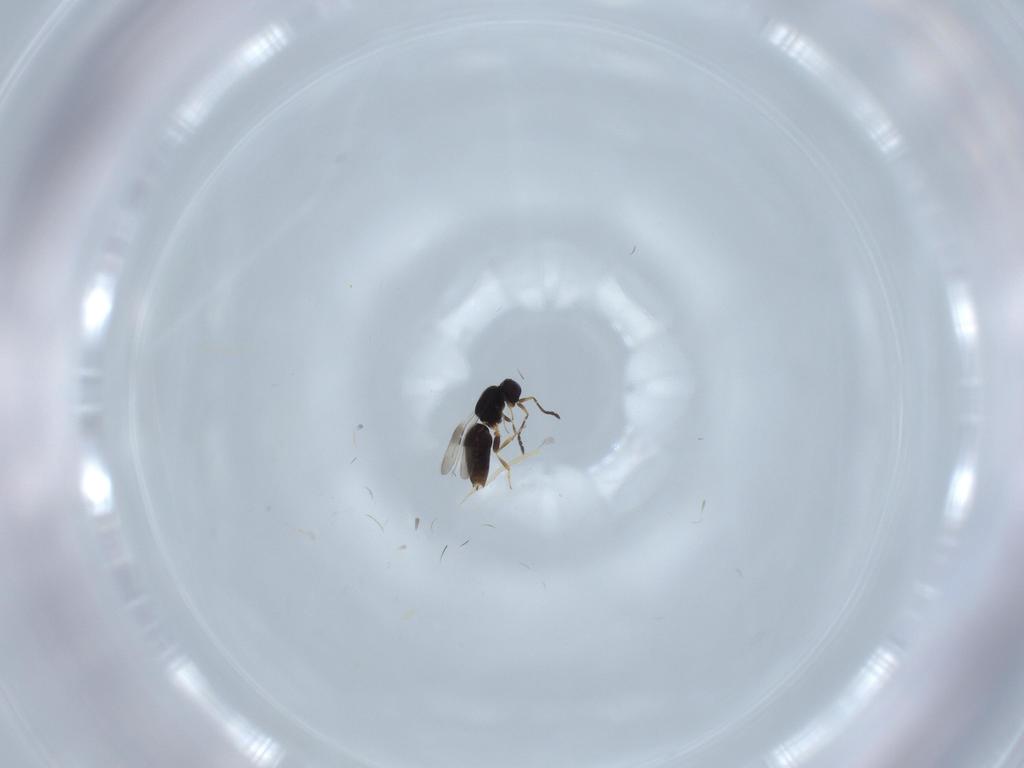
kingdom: Animalia
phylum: Arthropoda
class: Insecta
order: Hymenoptera
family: Ceraphronidae
